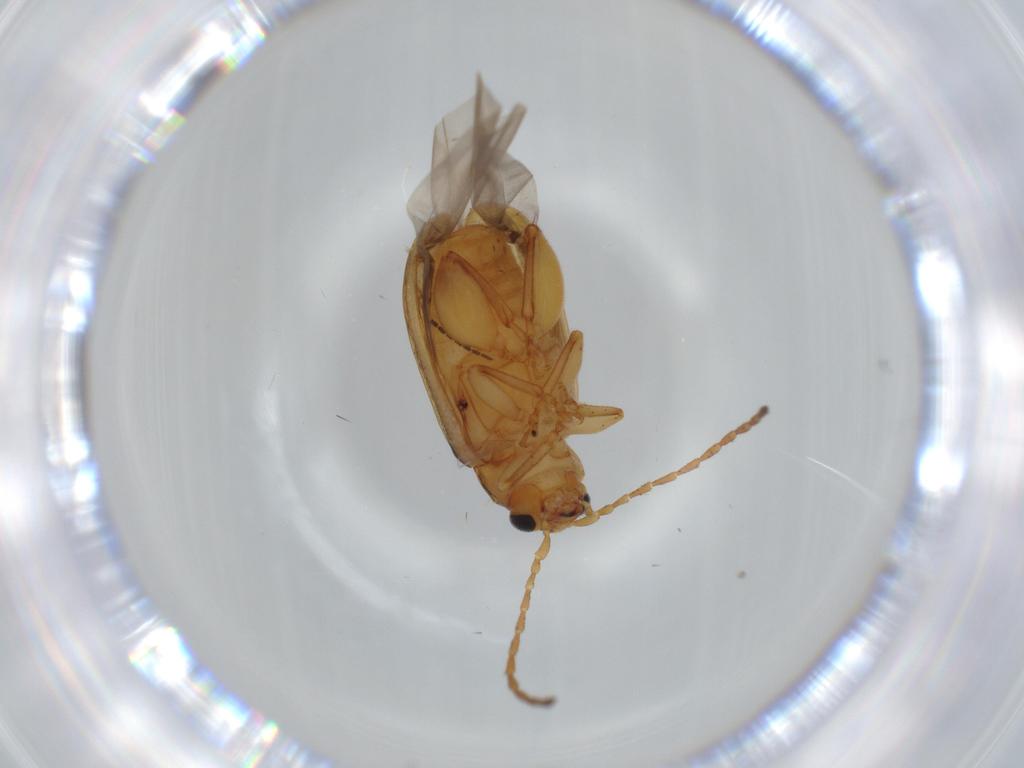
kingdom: Animalia
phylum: Arthropoda
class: Insecta
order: Coleoptera
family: Chrysomelidae
